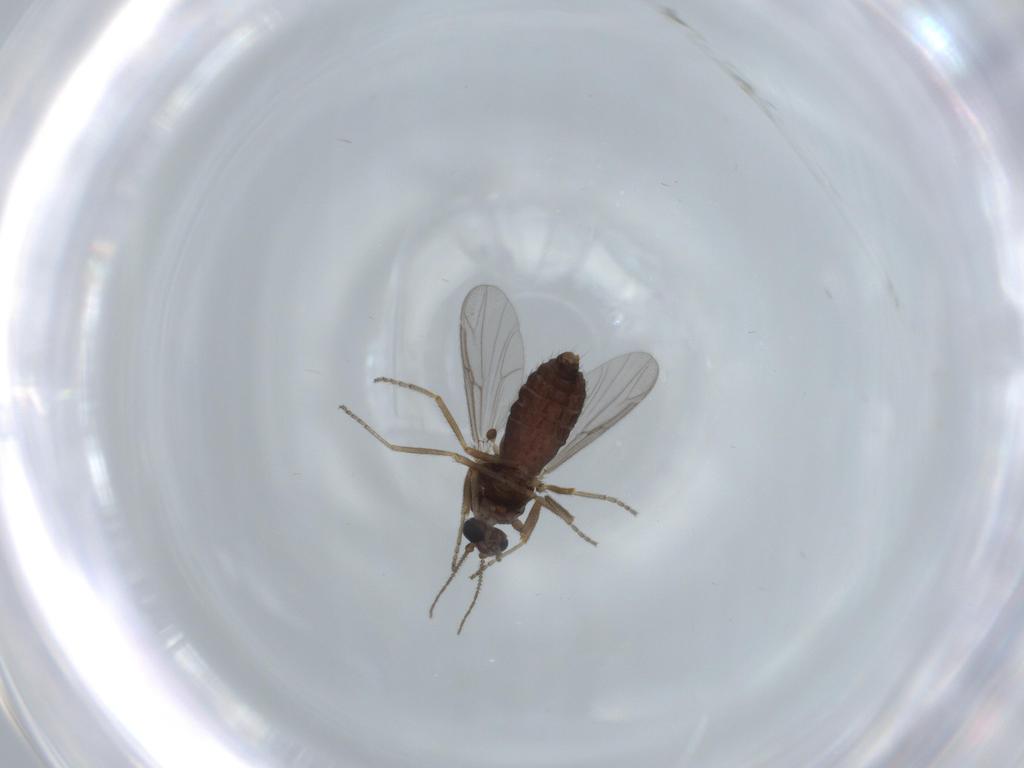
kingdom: Animalia
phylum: Arthropoda
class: Insecta
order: Diptera
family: Ceratopogonidae
